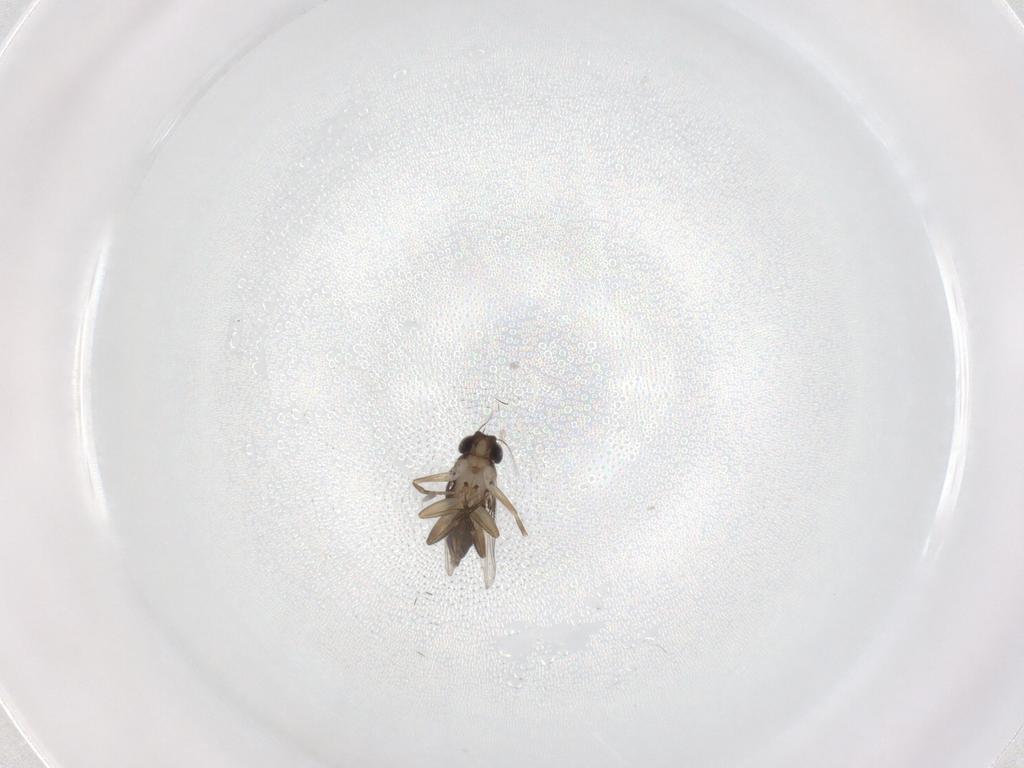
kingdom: Animalia
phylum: Arthropoda
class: Insecta
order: Diptera
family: Phoridae
